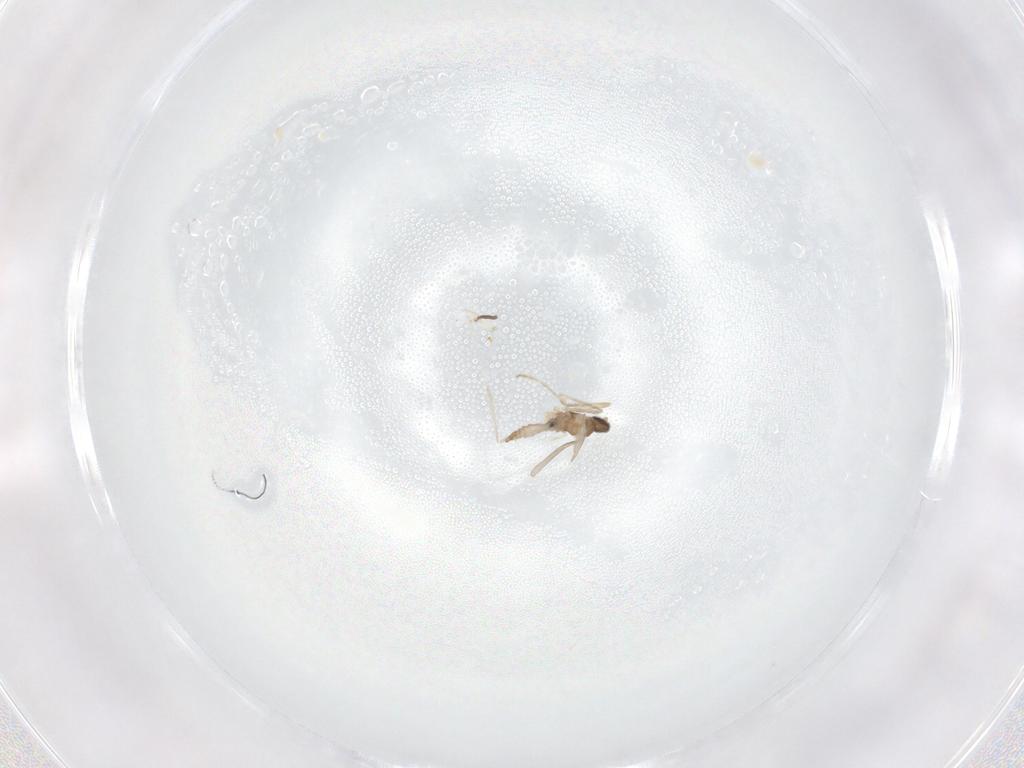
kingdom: Animalia
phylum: Arthropoda
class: Insecta
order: Diptera
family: Cecidomyiidae
